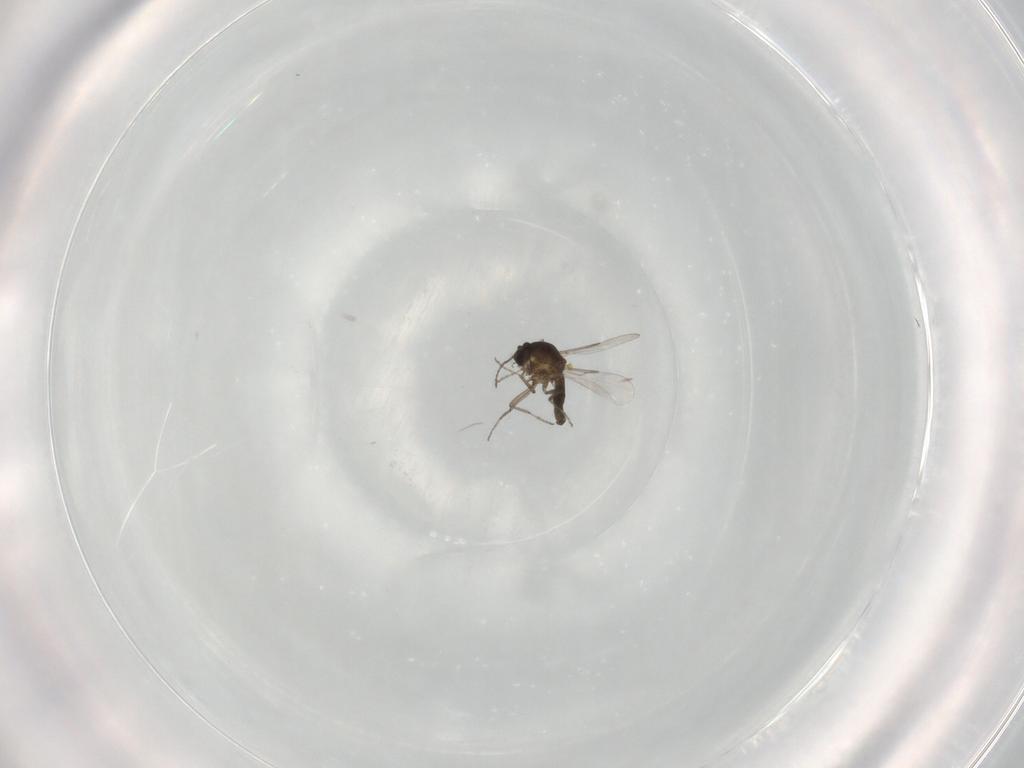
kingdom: Animalia
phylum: Arthropoda
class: Insecta
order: Diptera
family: Ceratopogonidae
